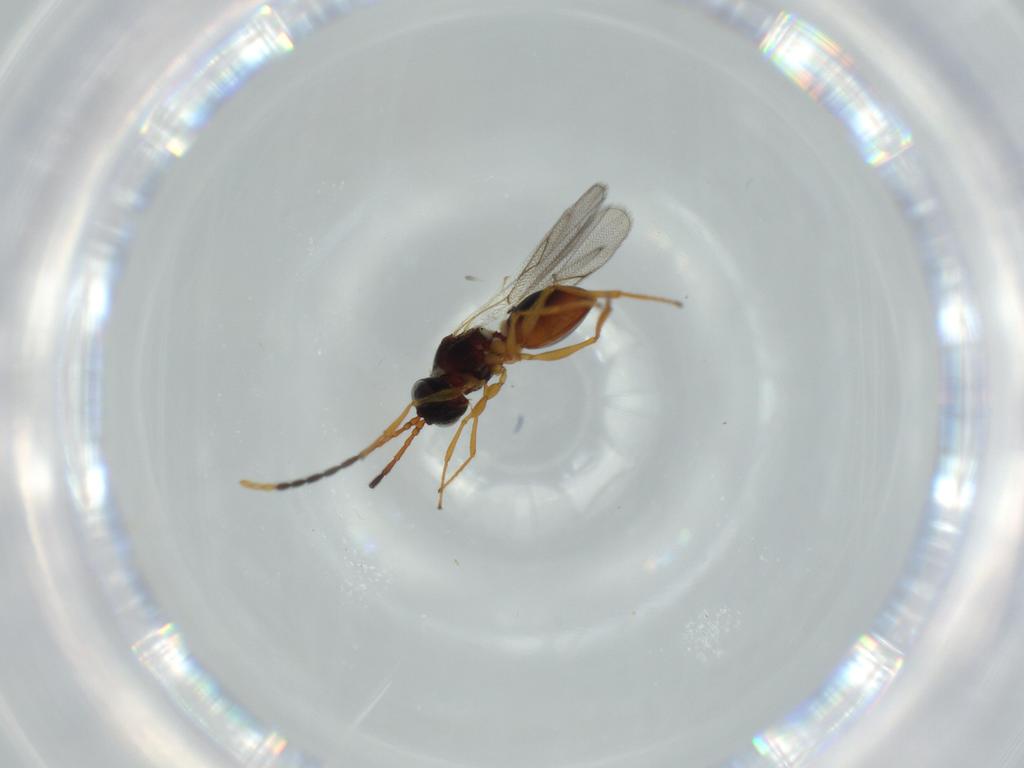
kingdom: Animalia
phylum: Arthropoda
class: Insecta
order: Hymenoptera
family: Figitidae
